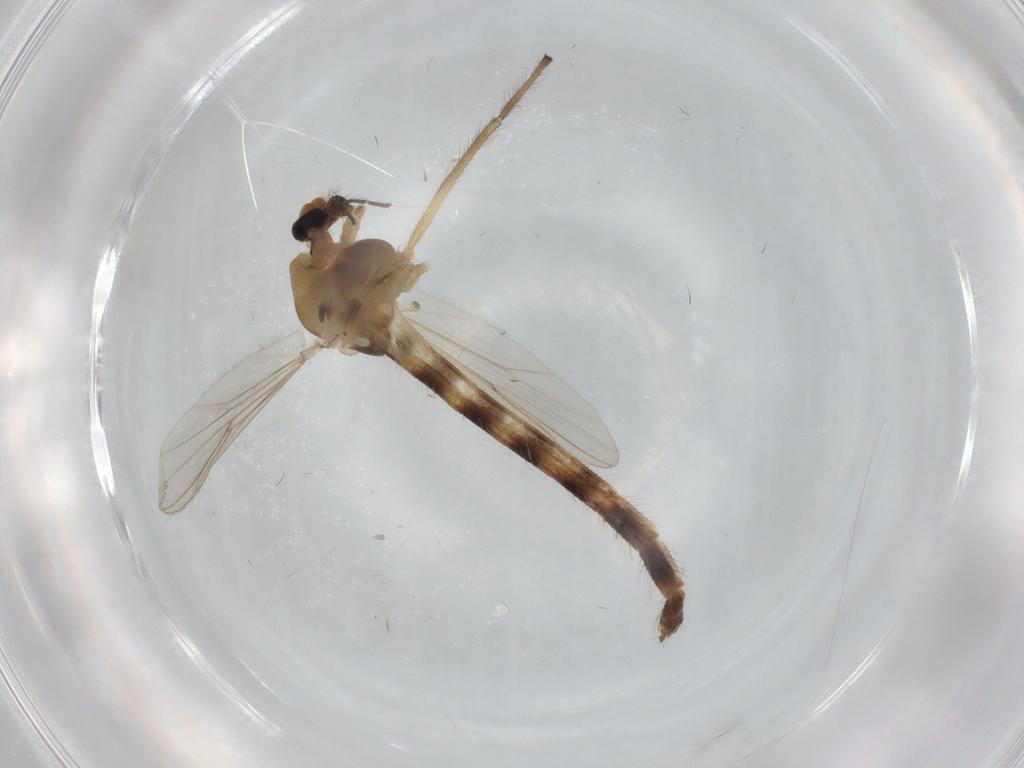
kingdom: Animalia
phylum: Arthropoda
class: Insecta
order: Diptera
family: Chironomidae
